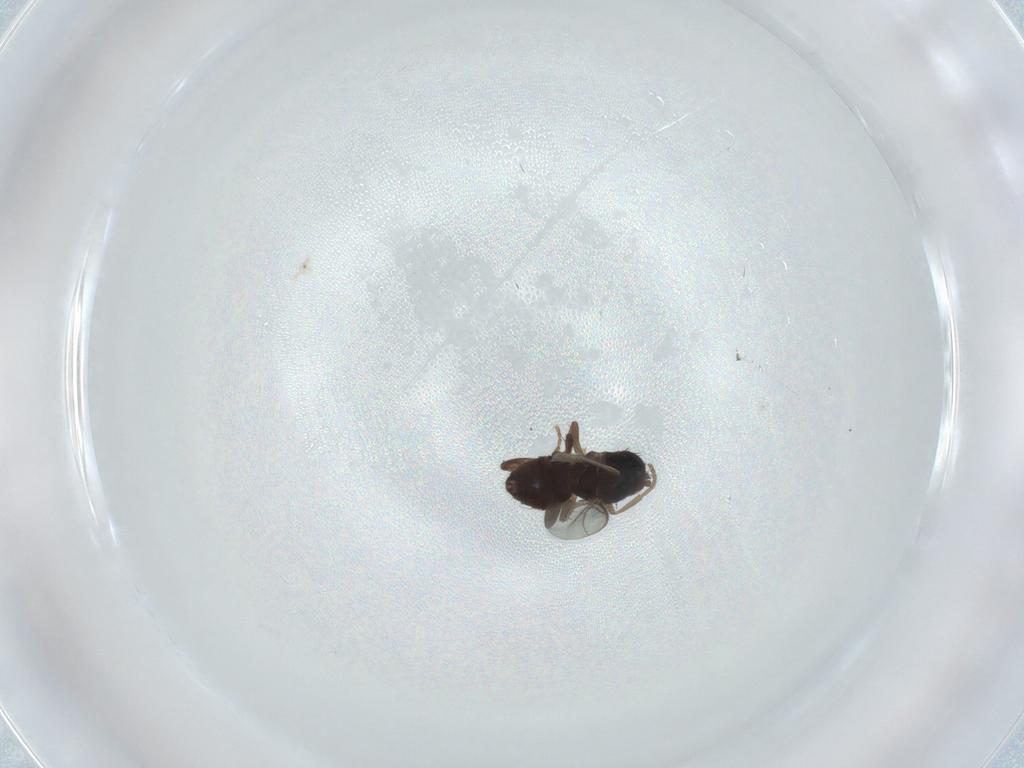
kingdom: Animalia
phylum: Arthropoda
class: Insecta
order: Diptera
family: Sphaeroceridae
